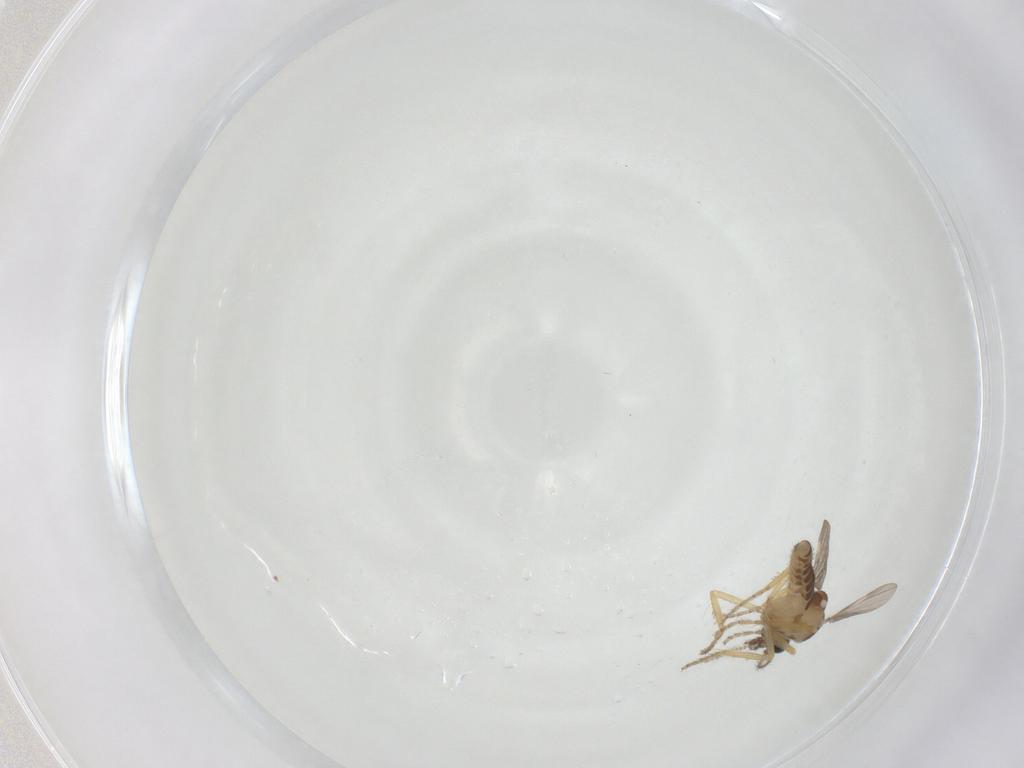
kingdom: Animalia
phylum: Arthropoda
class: Insecta
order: Diptera
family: Ceratopogonidae
